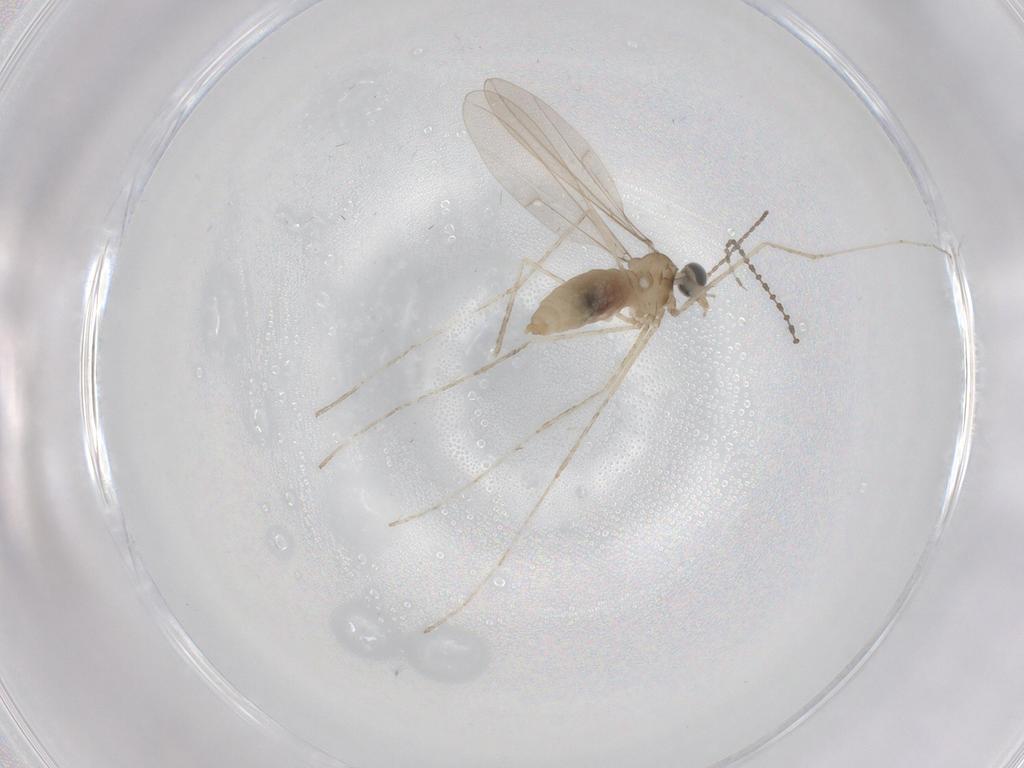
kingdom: Animalia
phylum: Arthropoda
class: Insecta
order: Diptera
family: Cecidomyiidae
